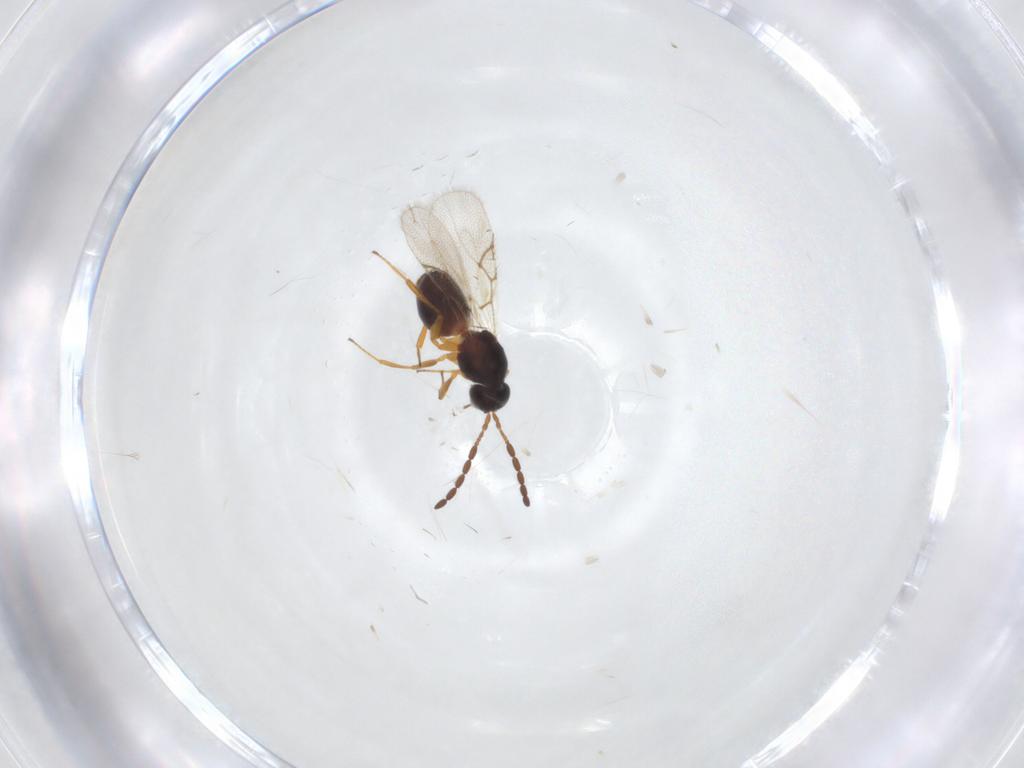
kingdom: Animalia
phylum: Arthropoda
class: Insecta
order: Hymenoptera
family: Figitidae
